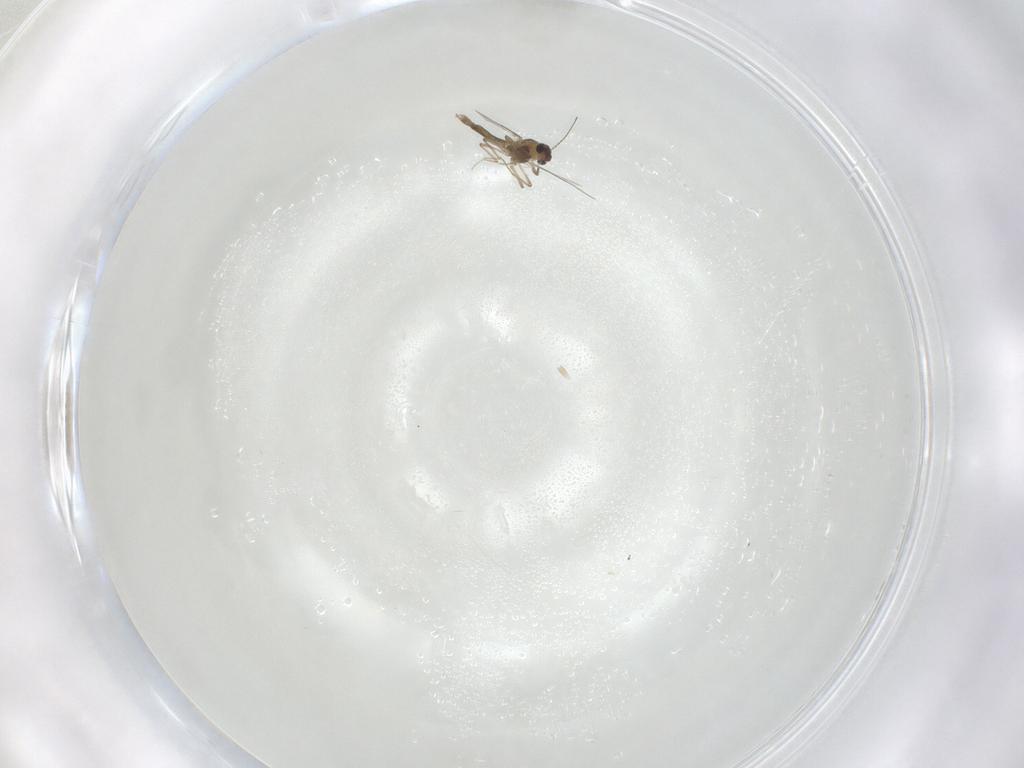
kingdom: Animalia
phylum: Arthropoda
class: Insecta
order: Diptera
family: Chironomidae
